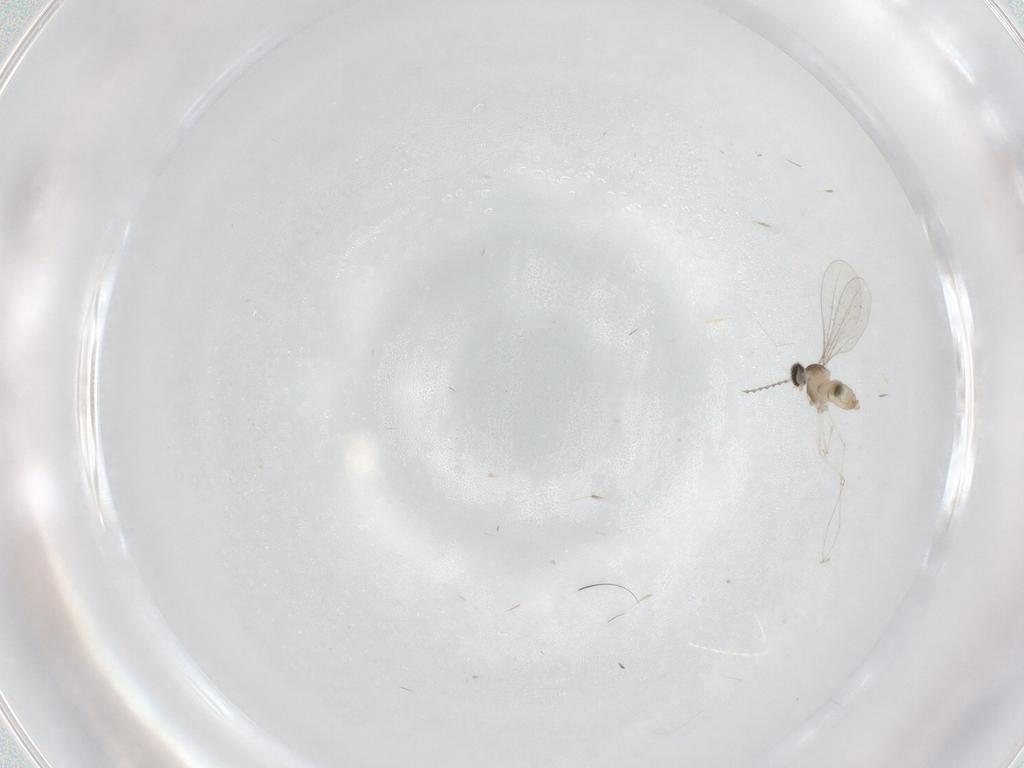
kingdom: Animalia
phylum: Arthropoda
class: Insecta
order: Diptera
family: Cecidomyiidae
